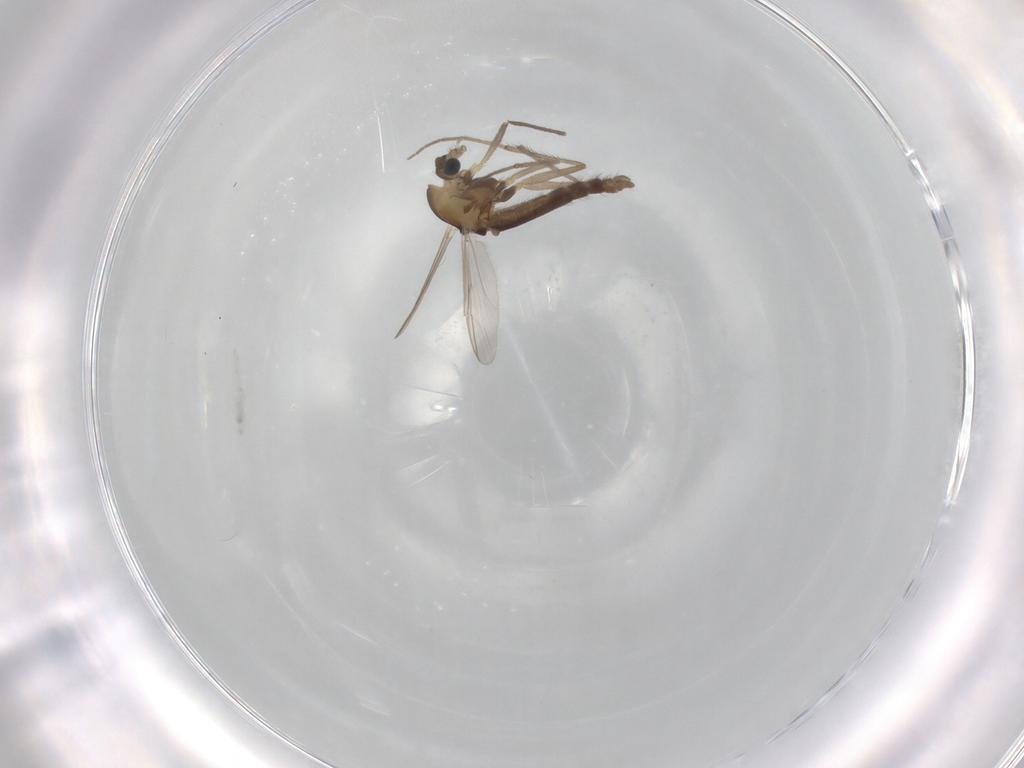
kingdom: Animalia
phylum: Arthropoda
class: Insecta
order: Diptera
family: Chironomidae
